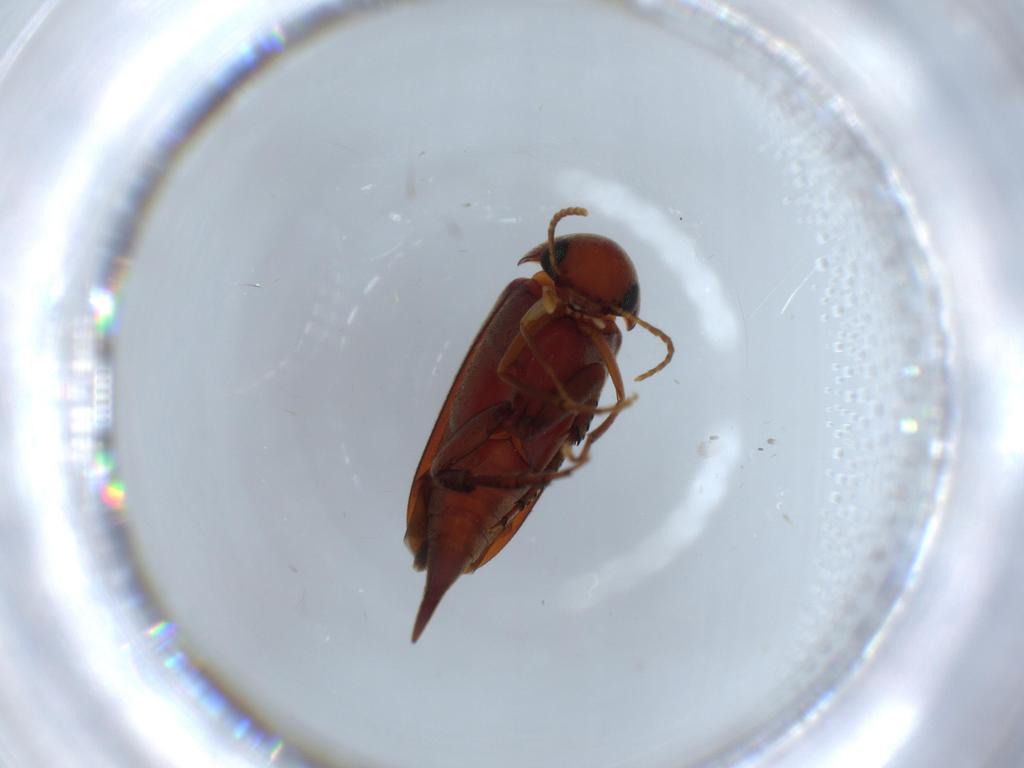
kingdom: Animalia
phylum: Arthropoda
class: Insecta
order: Coleoptera
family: Chrysomelidae
